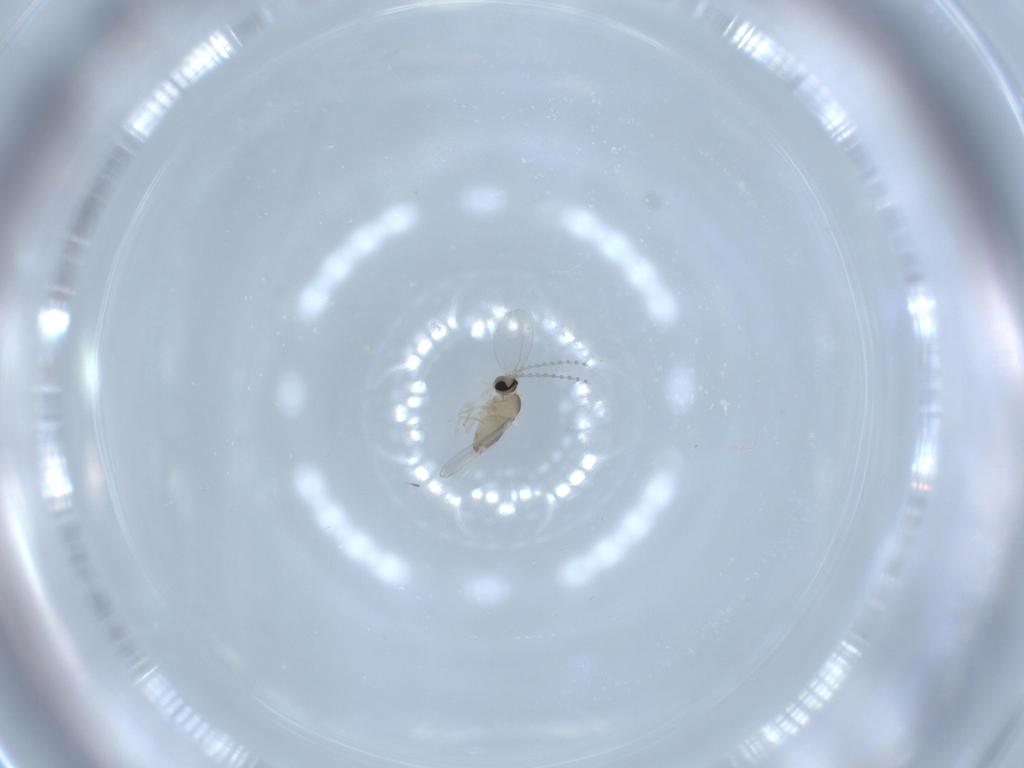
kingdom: Animalia
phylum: Arthropoda
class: Insecta
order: Diptera
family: Cecidomyiidae
